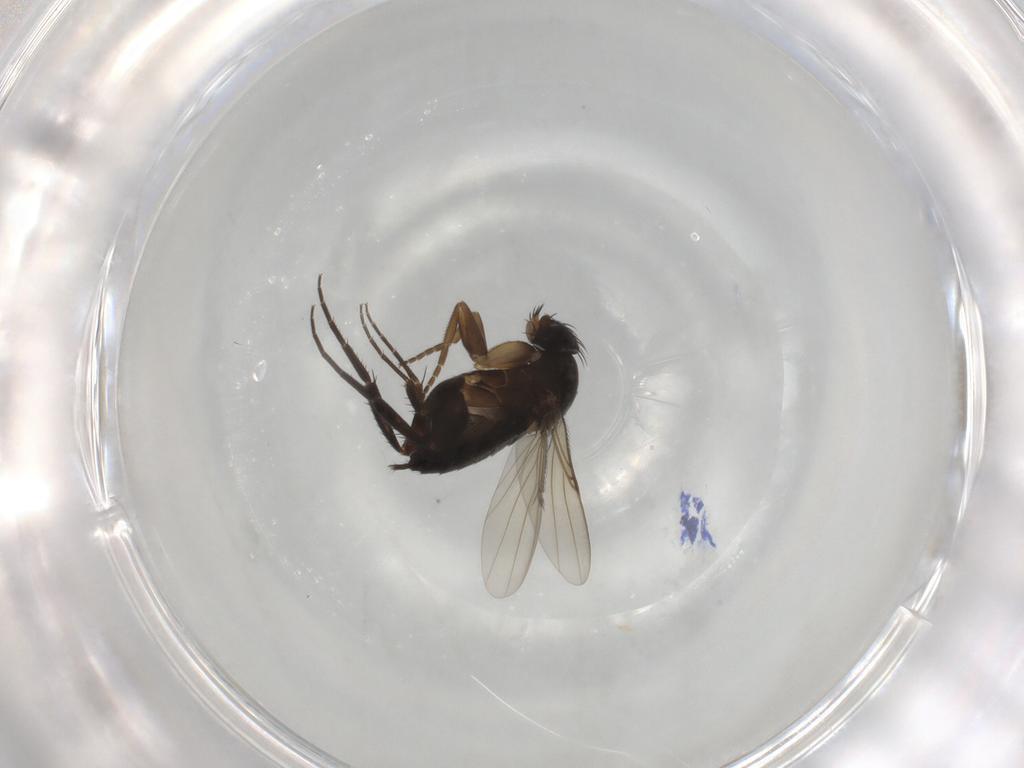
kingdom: Animalia
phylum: Arthropoda
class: Insecta
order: Diptera
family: Phoridae
